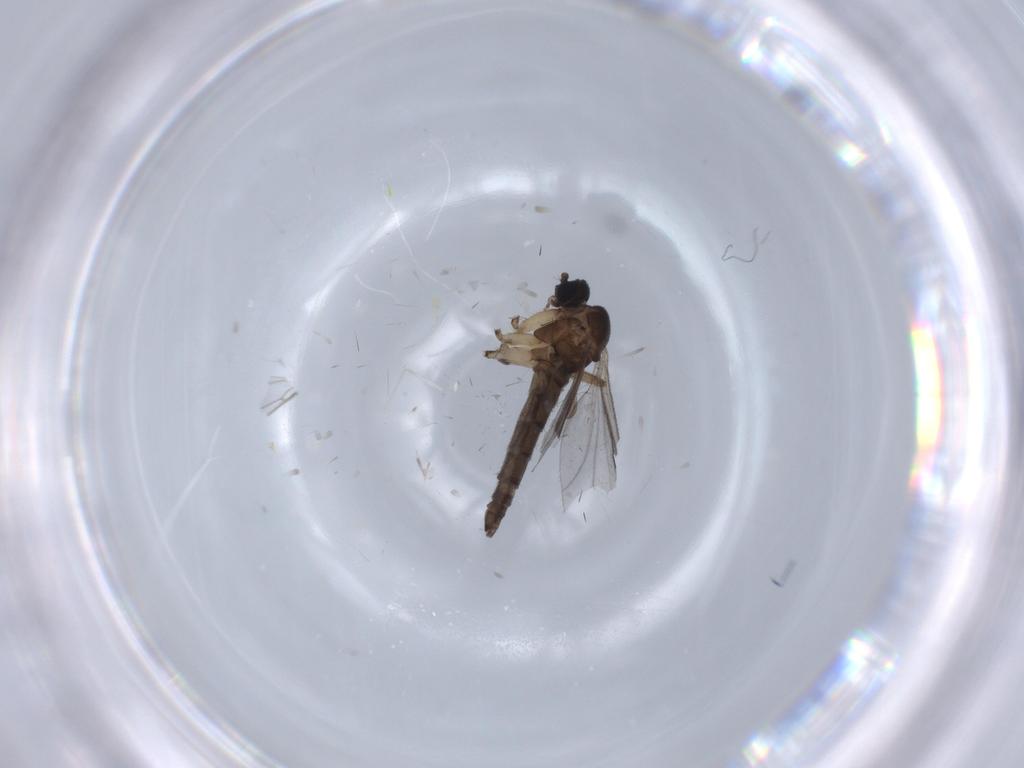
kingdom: Animalia
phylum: Arthropoda
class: Insecta
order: Diptera
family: Sciaridae
